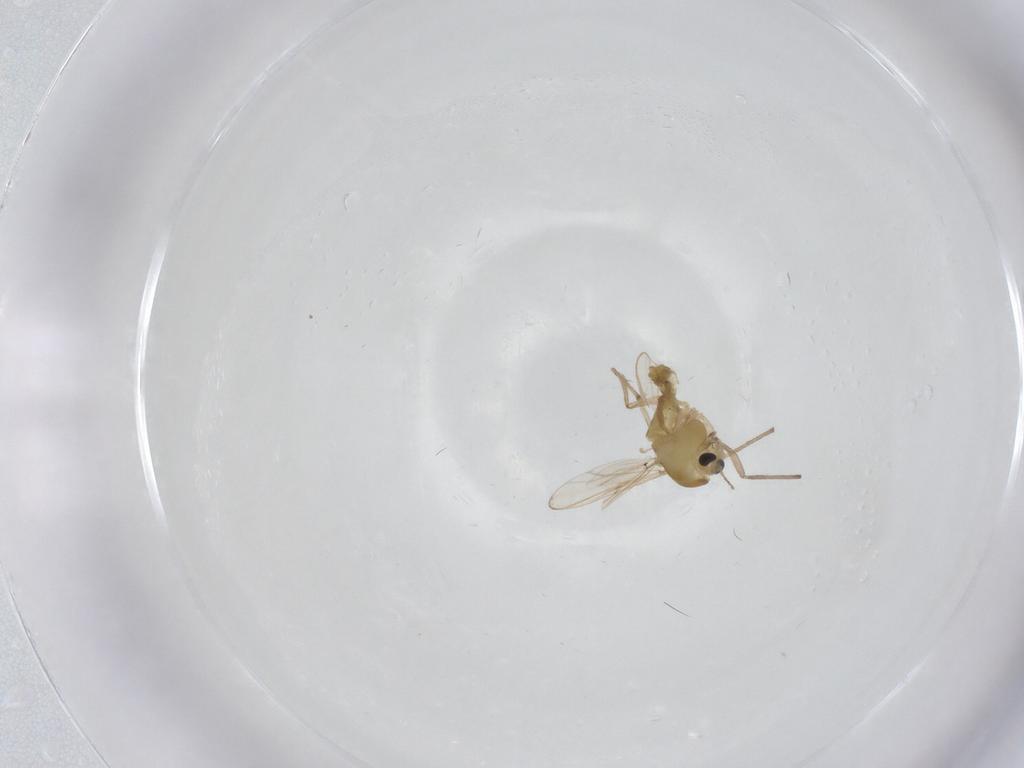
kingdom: Animalia
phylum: Arthropoda
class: Insecta
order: Diptera
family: Chironomidae
